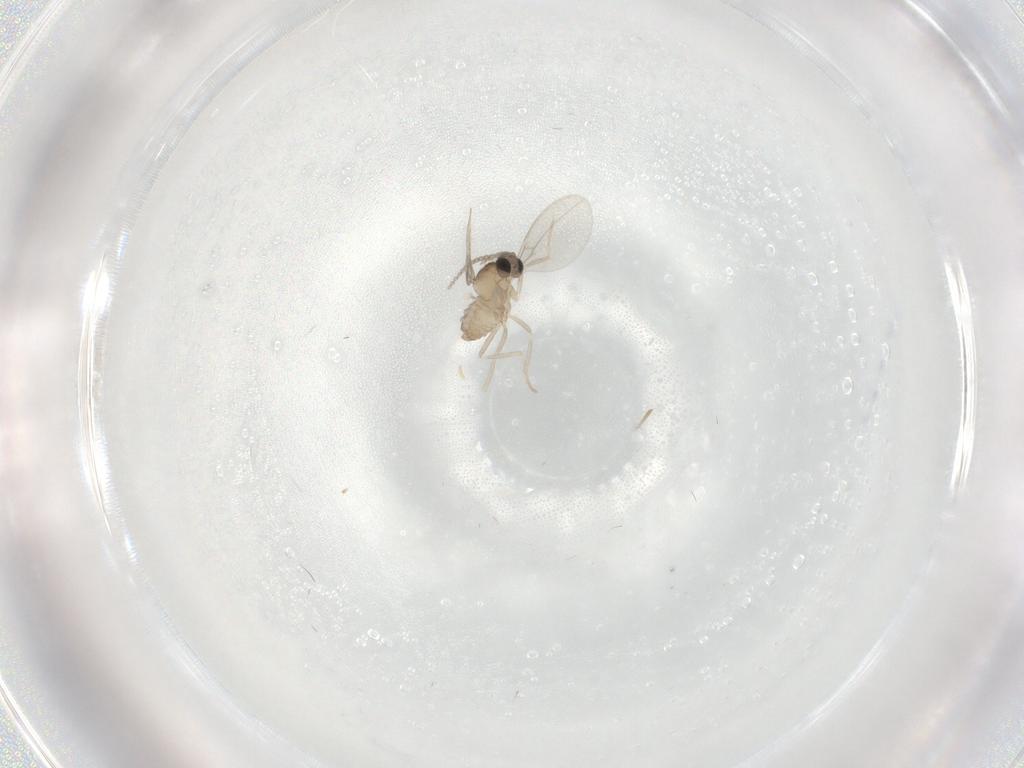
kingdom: Animalia
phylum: Arthropoda
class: Insecta
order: Diptera
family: Cecidomyiidae
